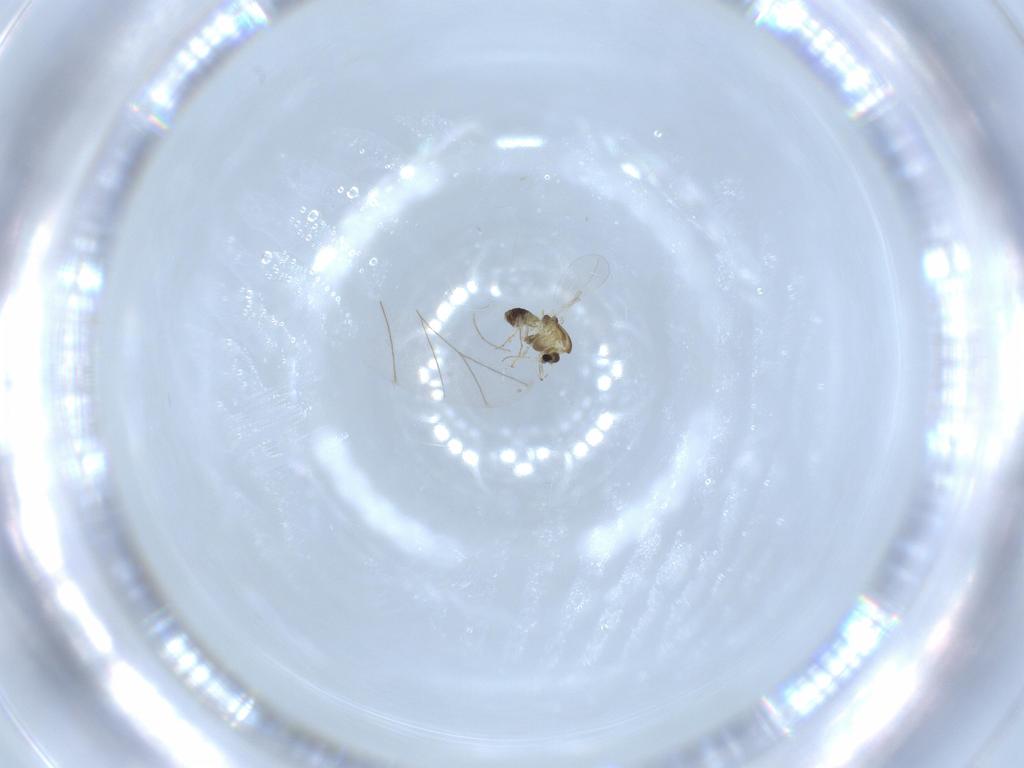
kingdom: Animalia
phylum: Arthropoda
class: Insecta
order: Diptera
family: Chironomidae
